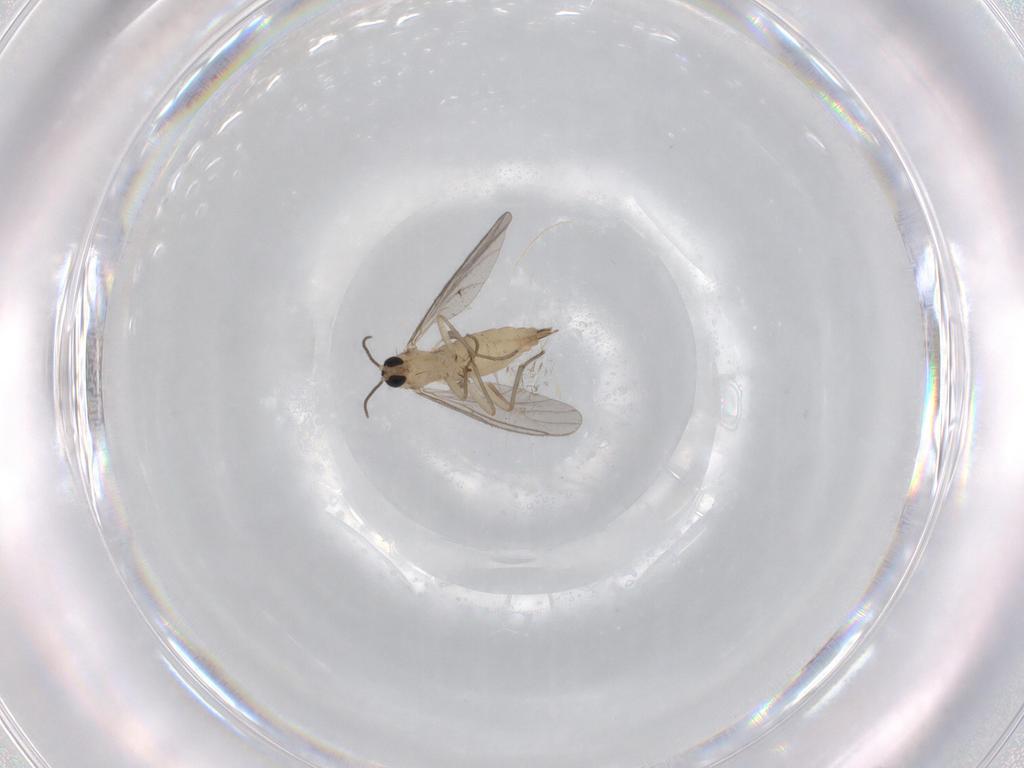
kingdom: Animalia
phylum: Arthropoda
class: Insecta
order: Diptera
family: Sciaridae
